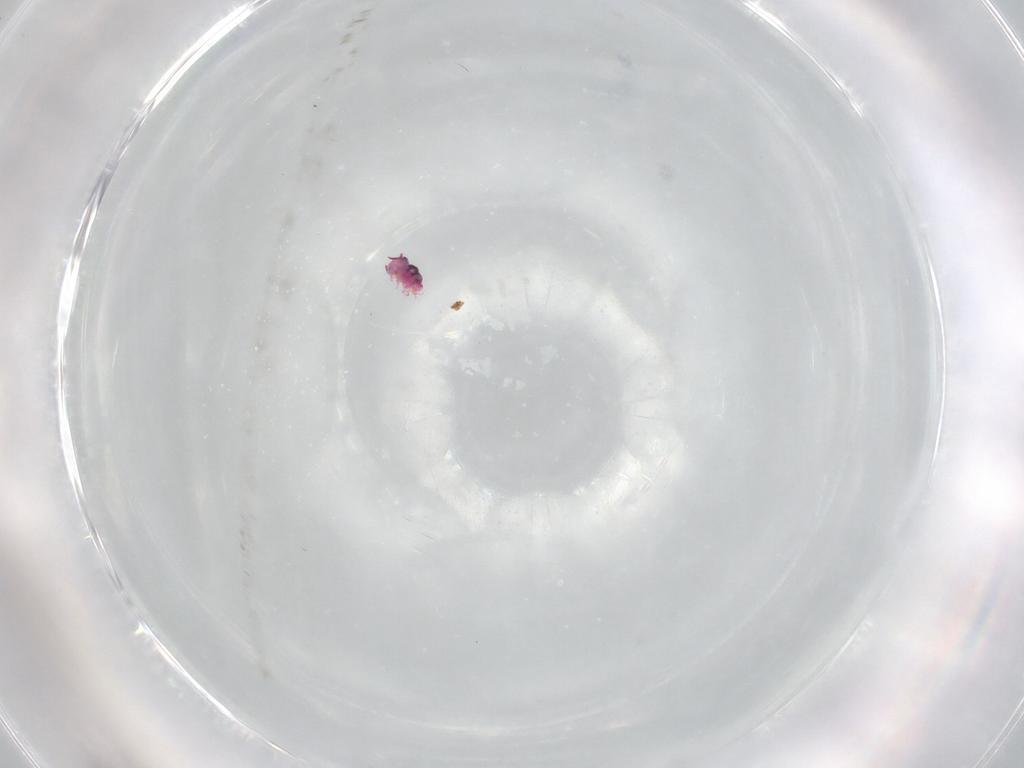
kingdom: Animalia
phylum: Arthropoda
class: Collembola
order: Symphypleona
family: Sminthurididae
